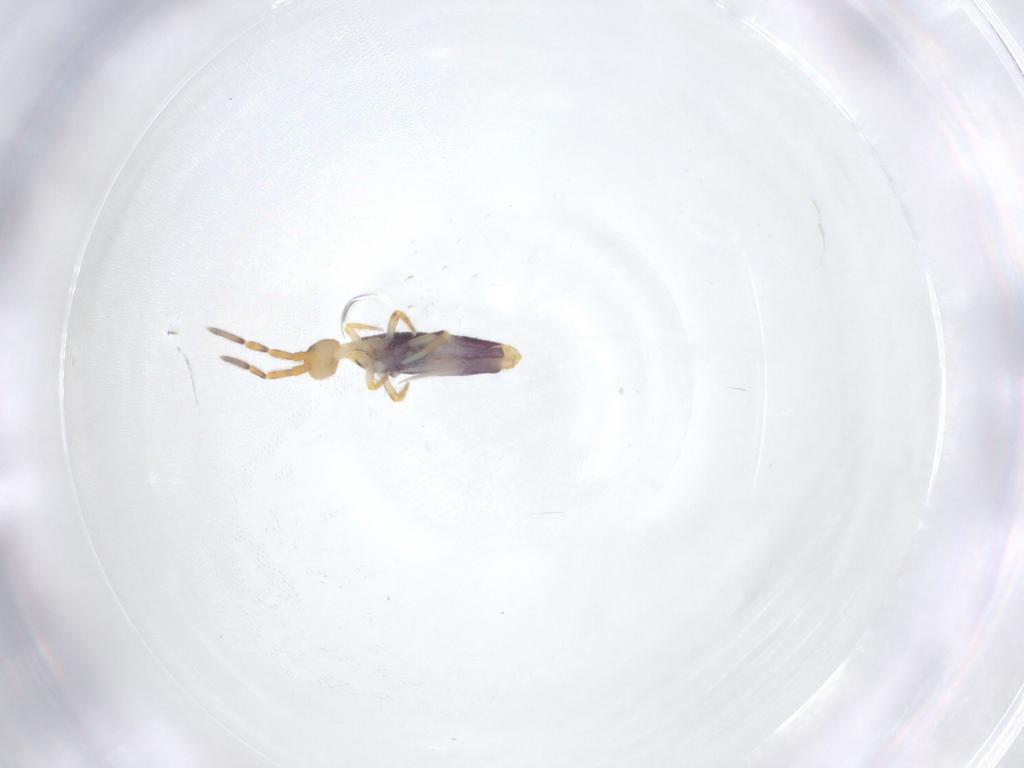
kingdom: Animalia
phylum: Arthropoda
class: Collembola
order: Entomobryomorpha
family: Entomobryidae
